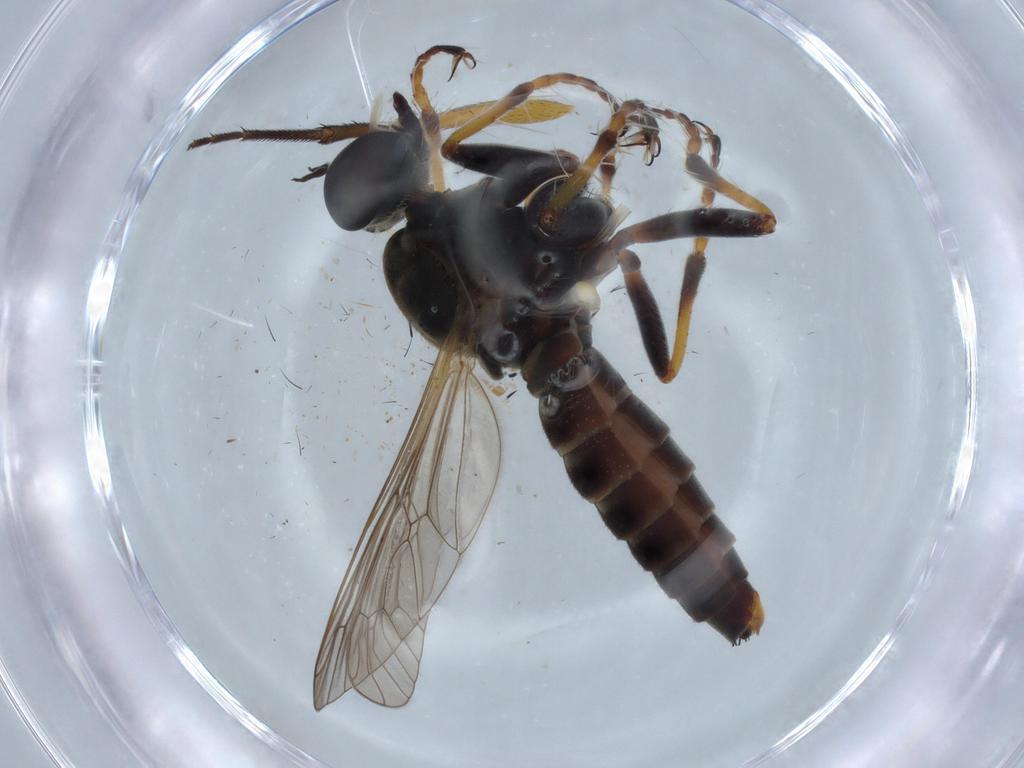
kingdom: Animalia
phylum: Arthropoda
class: Insecta
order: Diptera
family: Cecidomyiidae
